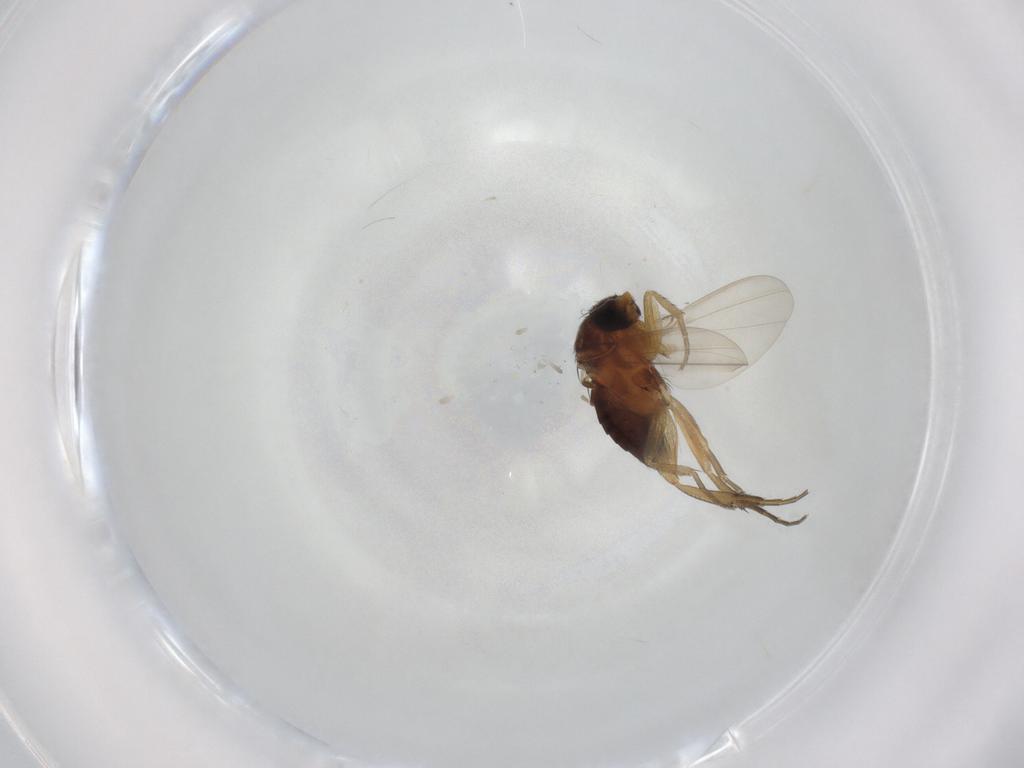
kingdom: Animalia
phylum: Arthropoda
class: Insecta
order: Diptera
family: Phoridae
